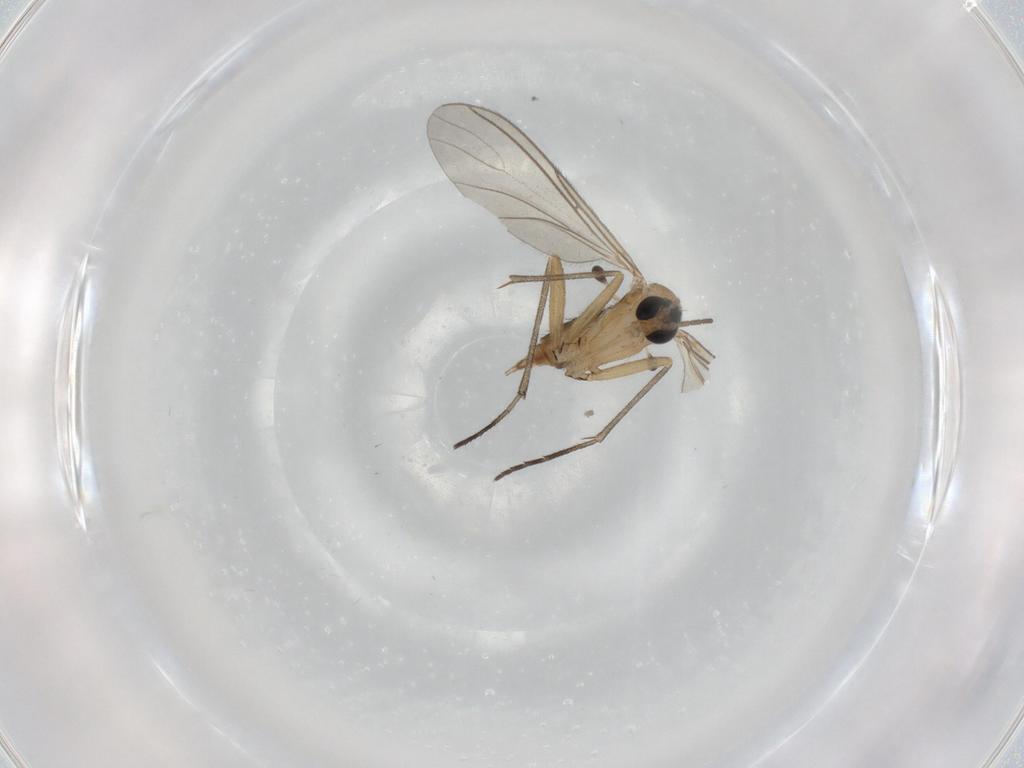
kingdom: Animalia
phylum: Arthropoda
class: Insecta
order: Diptera
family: Sciaridae
